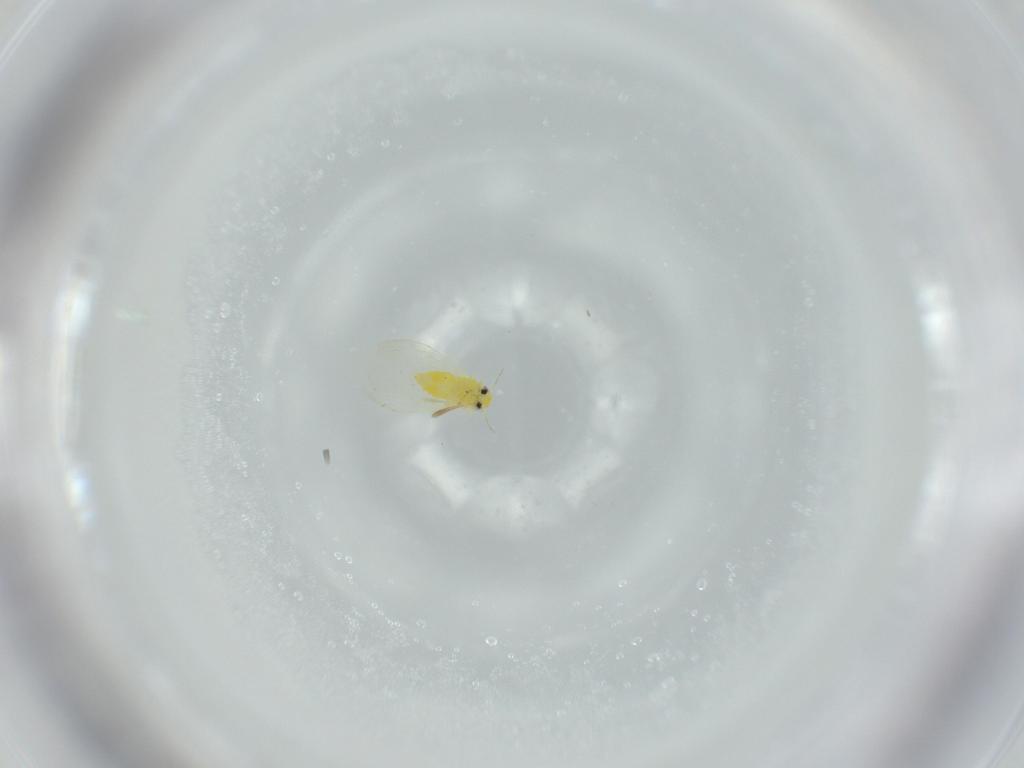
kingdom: Animalia
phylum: Arthropoda
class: Insecta
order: Hemiptera
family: Aleyrodidae
